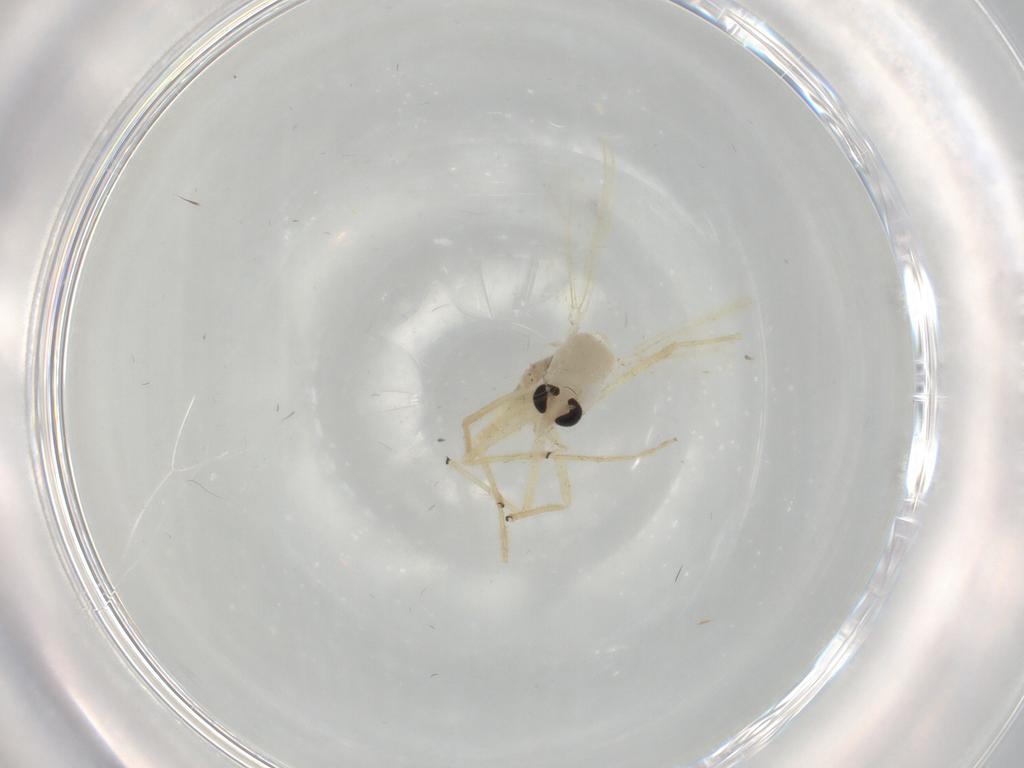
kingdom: Animalia
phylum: Arthropoda
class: Insecta
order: Diptera
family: Chironomidae
